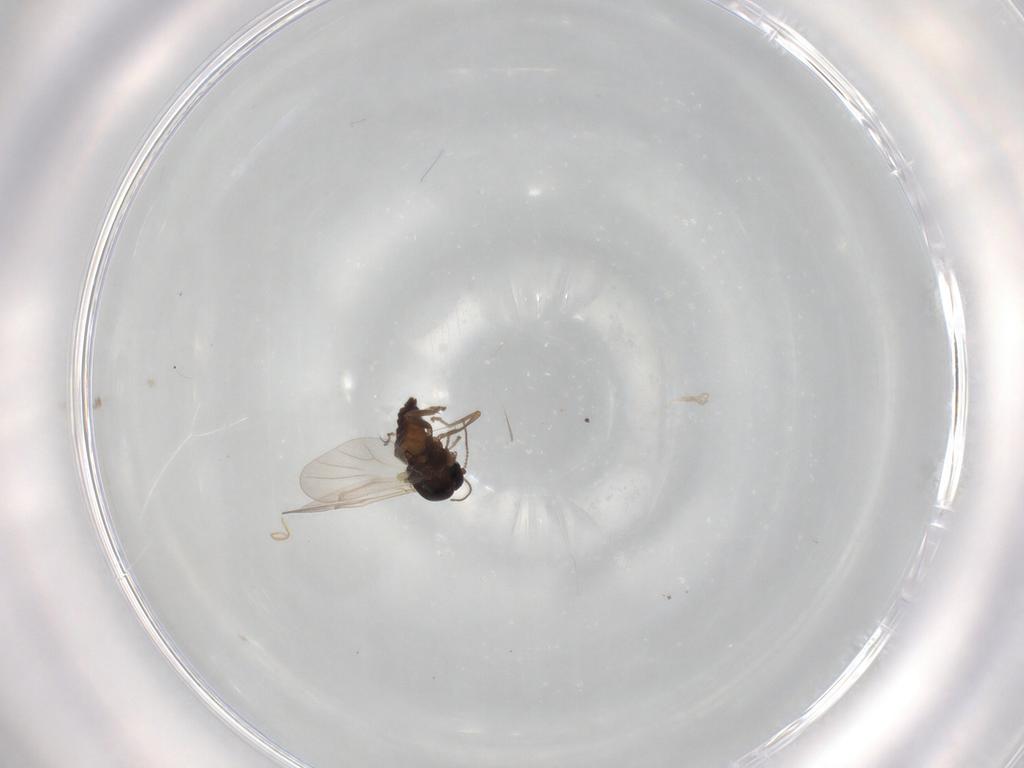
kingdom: Animalia
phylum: Arthropoda
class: Insecta
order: Diptera
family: Ceratopogonidae
